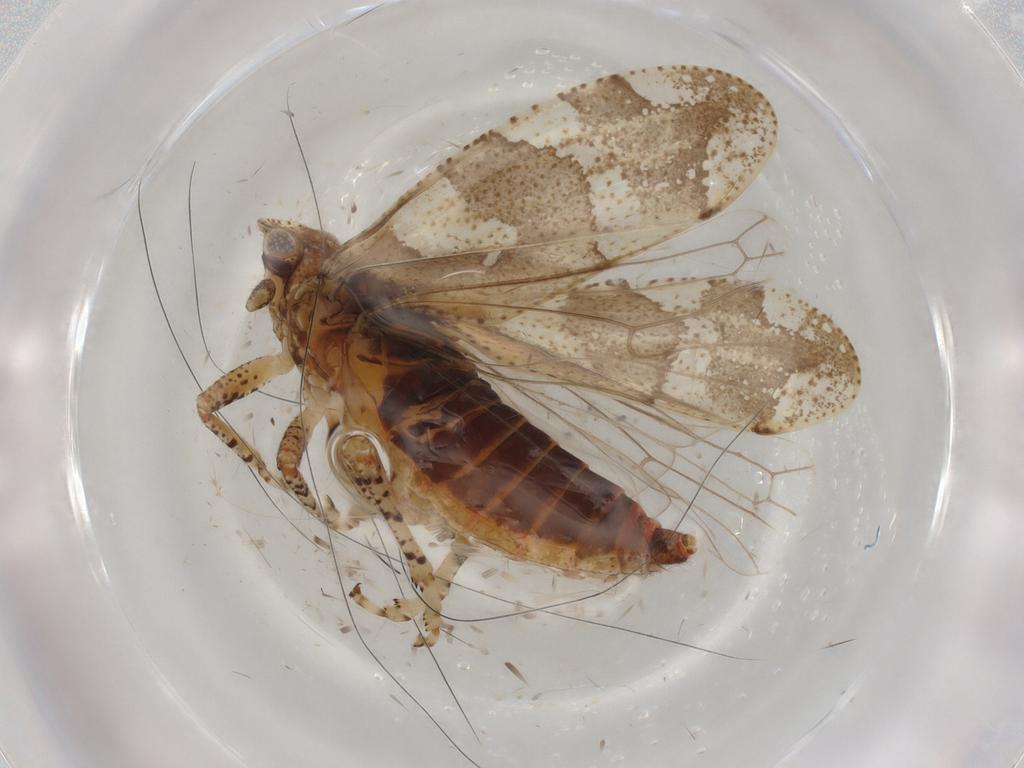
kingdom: Animalia
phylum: Arthropoda
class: Insecta
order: Hemiptera
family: Tettigometridae
